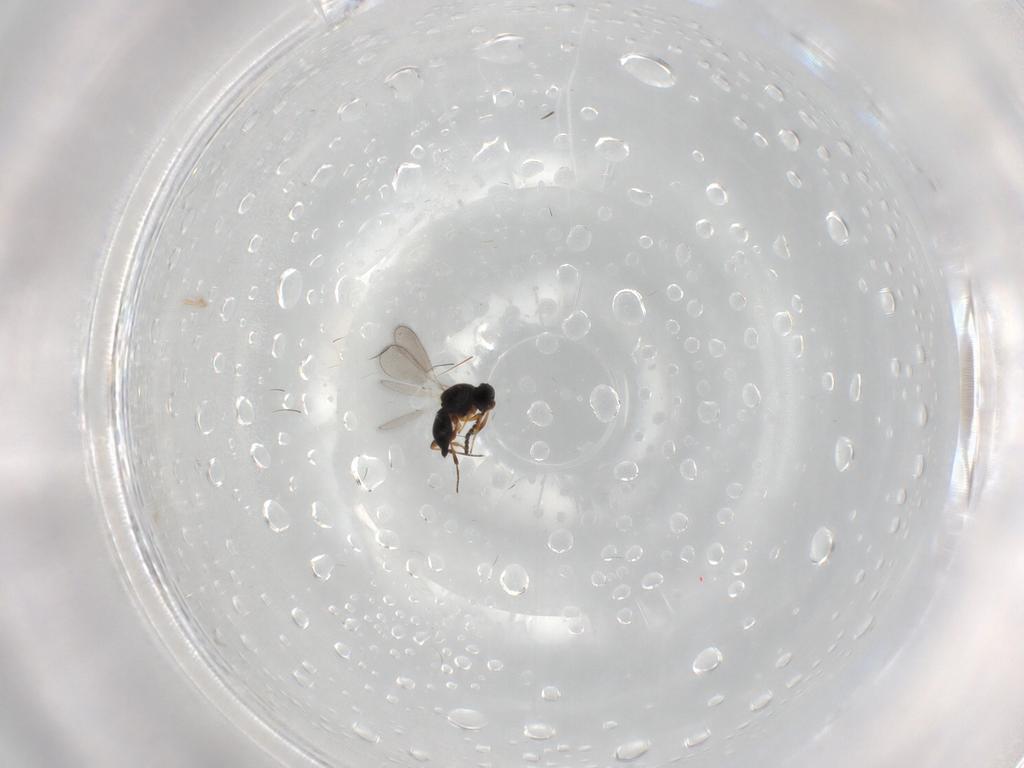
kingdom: Animalia
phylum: Arthropoda
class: Insecta
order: Hymenoptera
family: Platygastridae
